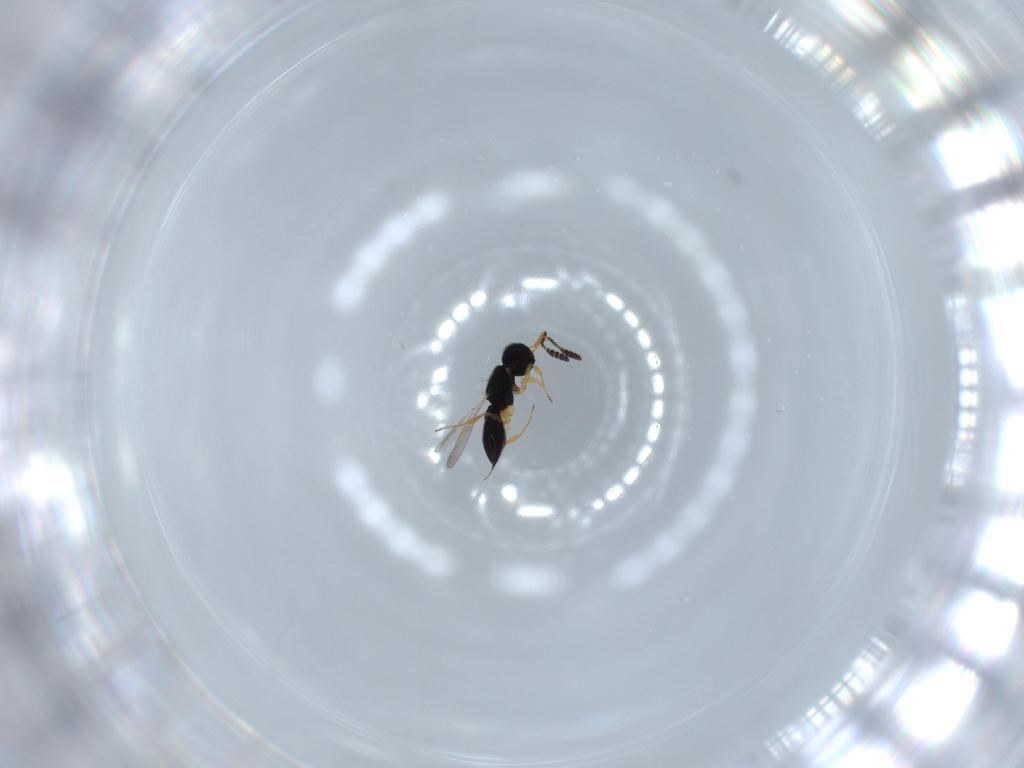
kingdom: Animalia
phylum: Arthropoda
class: Insecta
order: Hymenoptera
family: Scelionidae
